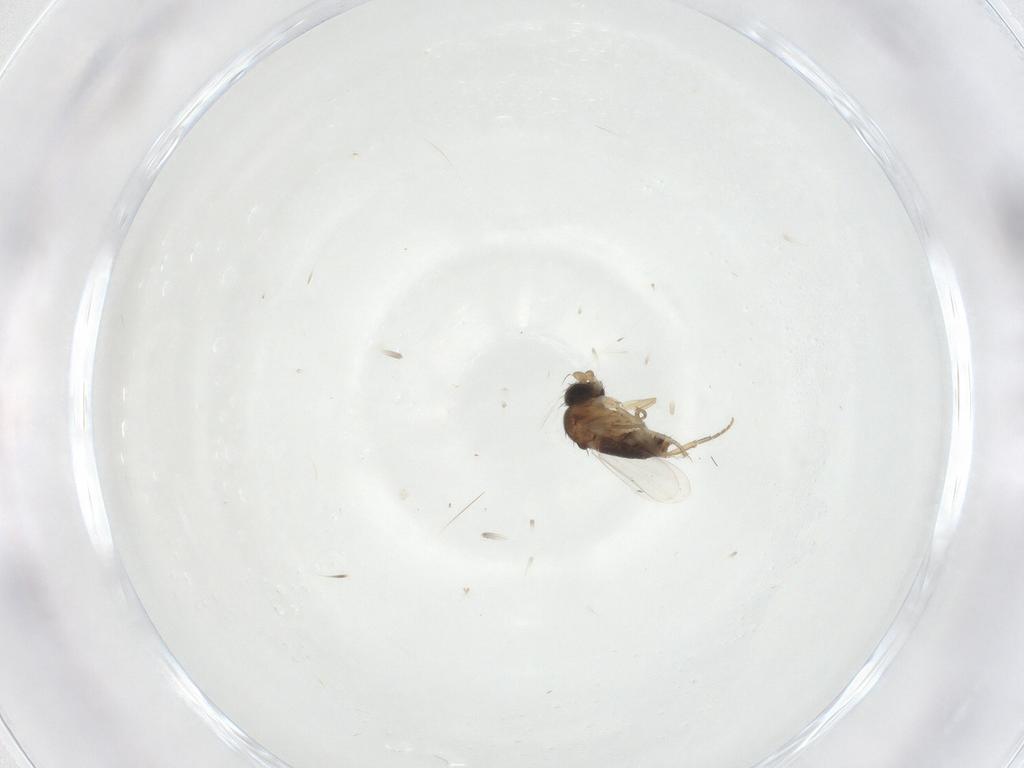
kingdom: Animalia
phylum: Arthropoda
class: Insecta
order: Diptera
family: Phoridae
